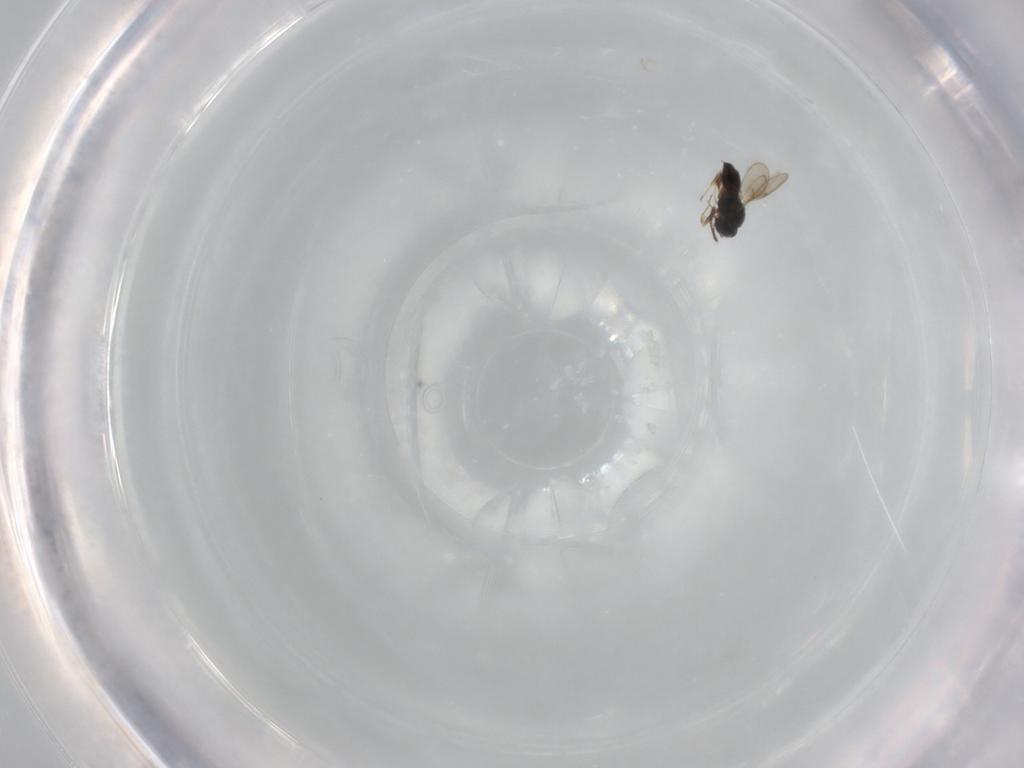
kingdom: Animalia
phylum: Arthropoda
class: Insecta
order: Hymenoptera
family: Scelionidae
